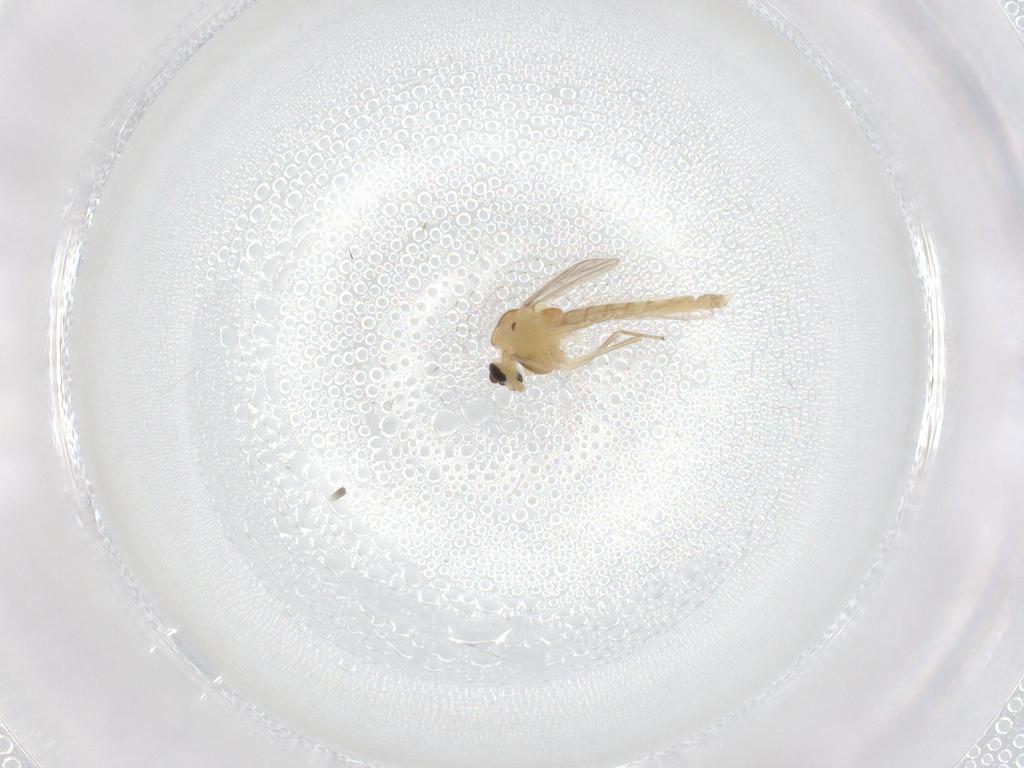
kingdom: Animalia
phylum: Arthropoda
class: Insecta
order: Diptera
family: Chironomidae
